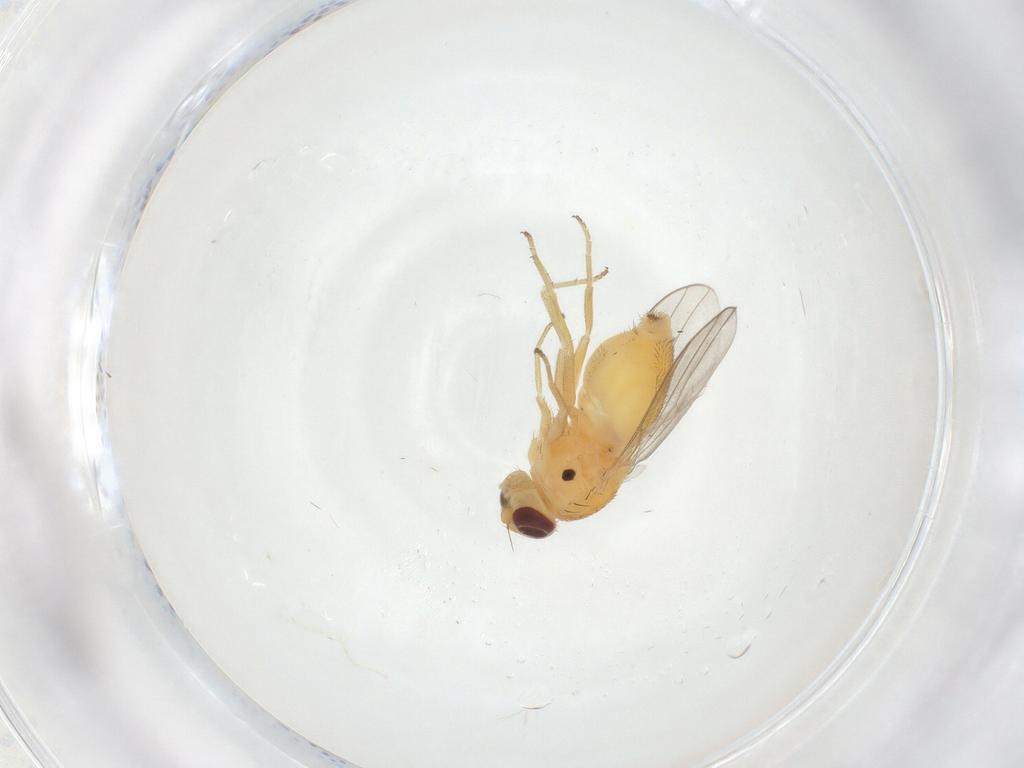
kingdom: Animalia
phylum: Arthropoda
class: Insecta
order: Diptera
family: Chloropidae
